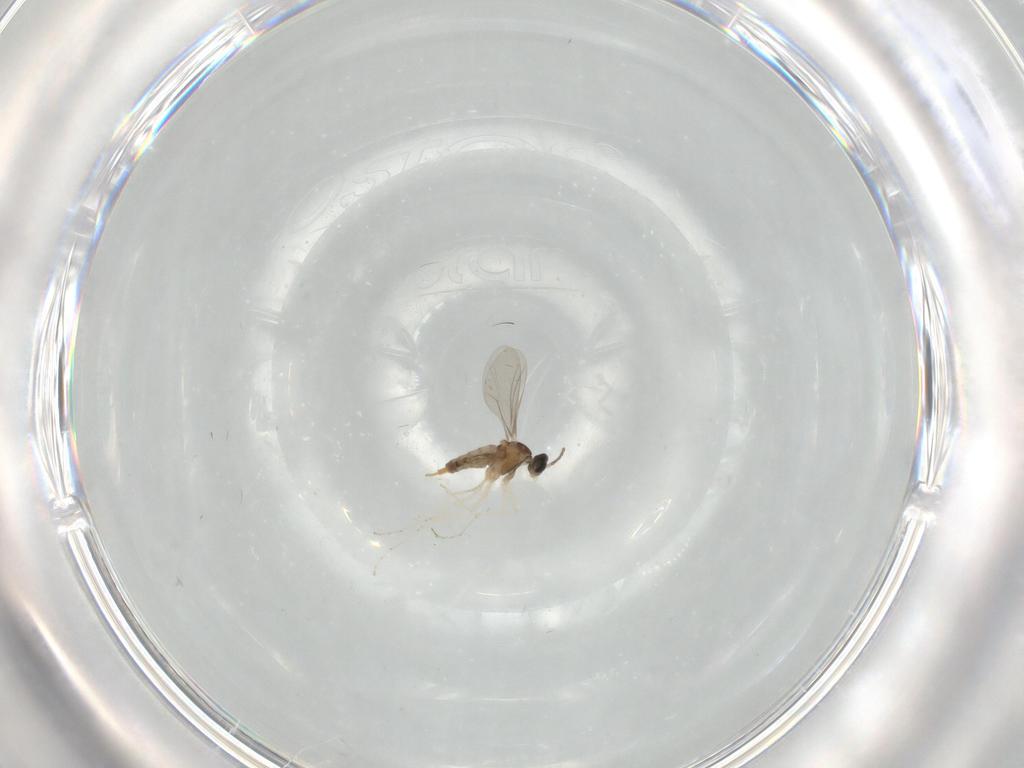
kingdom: Animalia
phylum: Arthropoda
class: Insecta
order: Diptera
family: Cecidomyiidae
